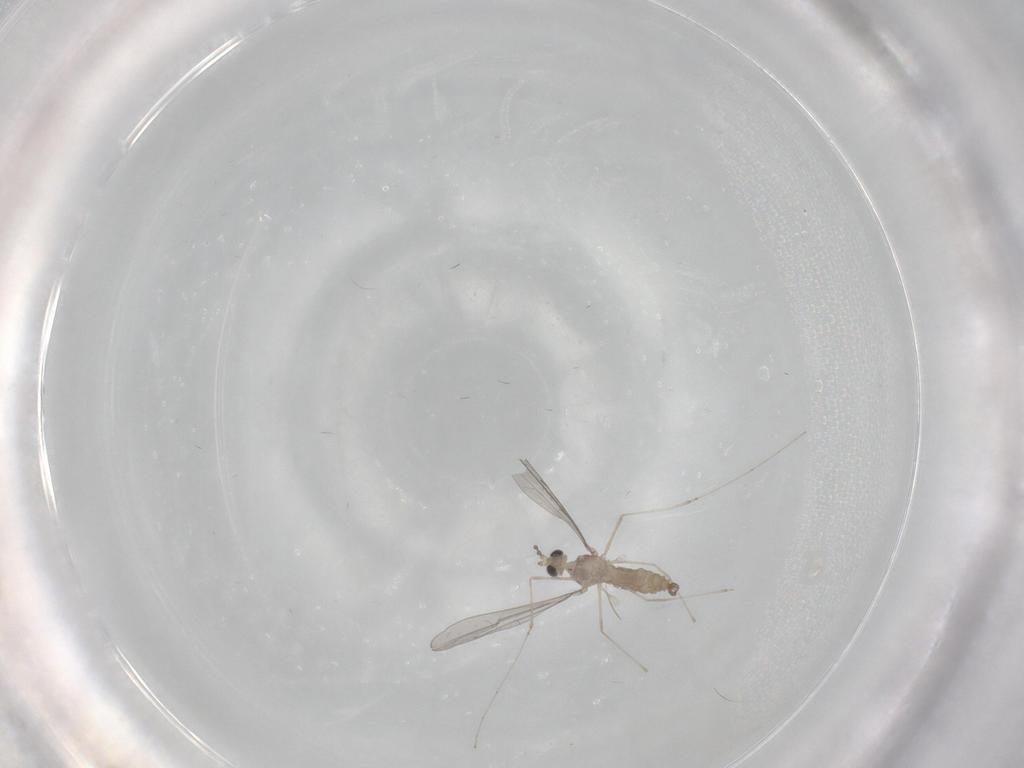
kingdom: Animalia
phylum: Arthropoda
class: Insecta
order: Diptera
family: Cecidomyiidae
